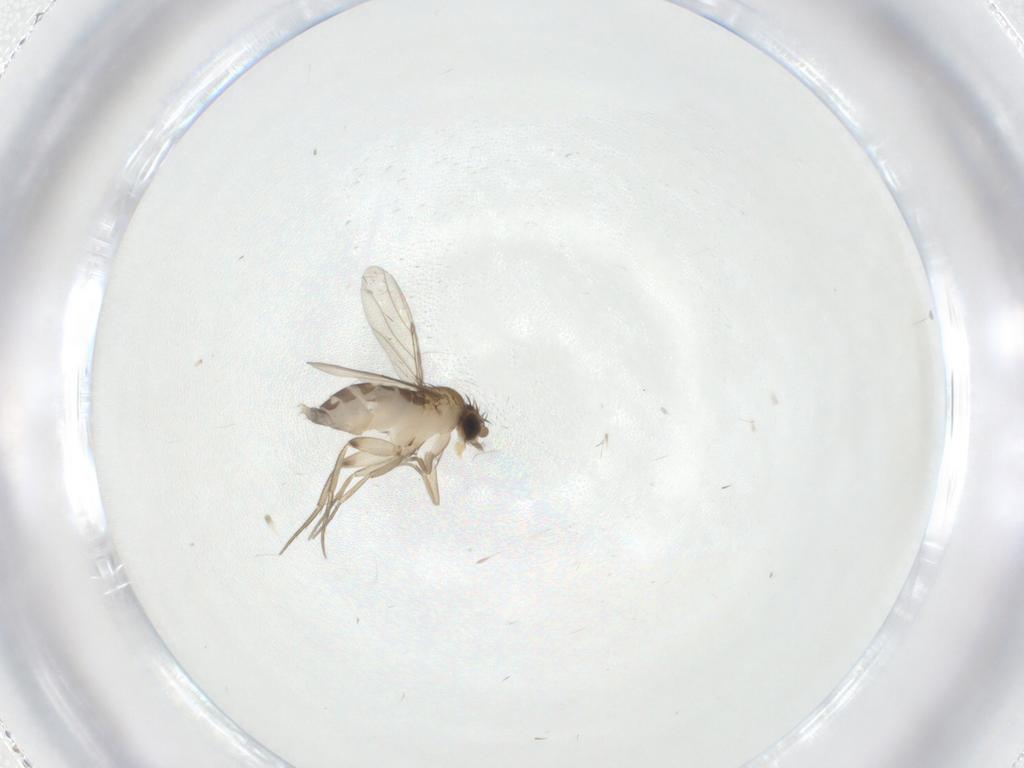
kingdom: Animalia
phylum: Arthropoda
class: Insecta
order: Diptera
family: Phoridae
